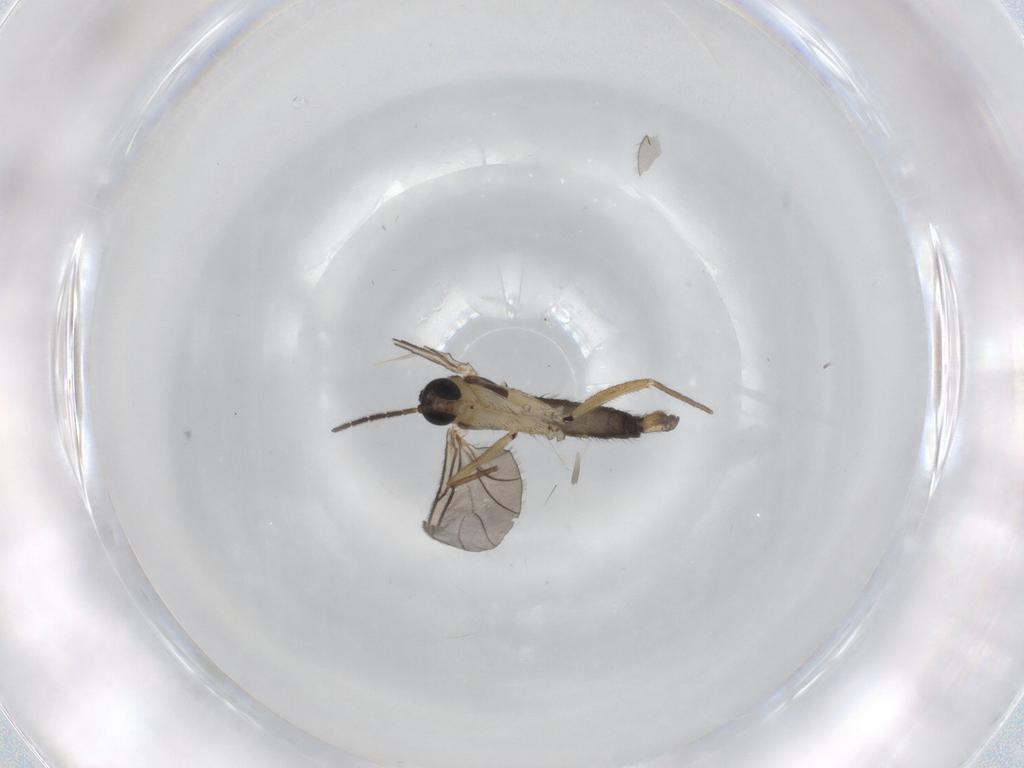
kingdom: Animalia
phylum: Arthropoda
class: Insecta
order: Diptera
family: Sciaridae
